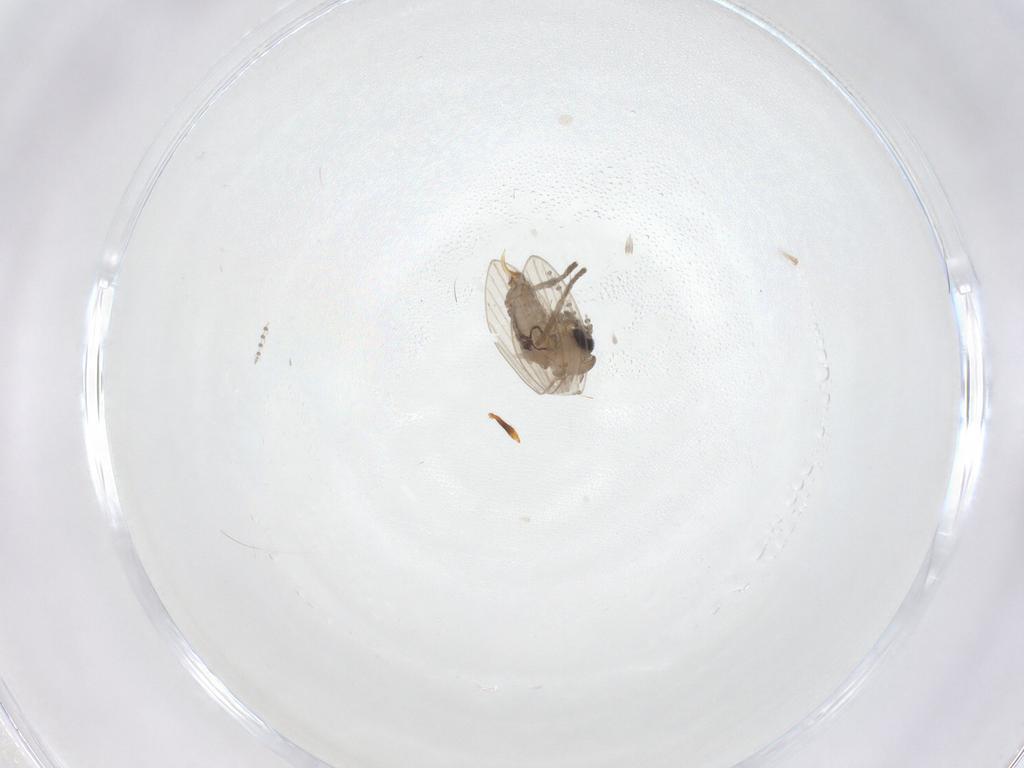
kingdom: Animalia
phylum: Arthropoda
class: Insecta
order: Diptera
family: Psychodidae
